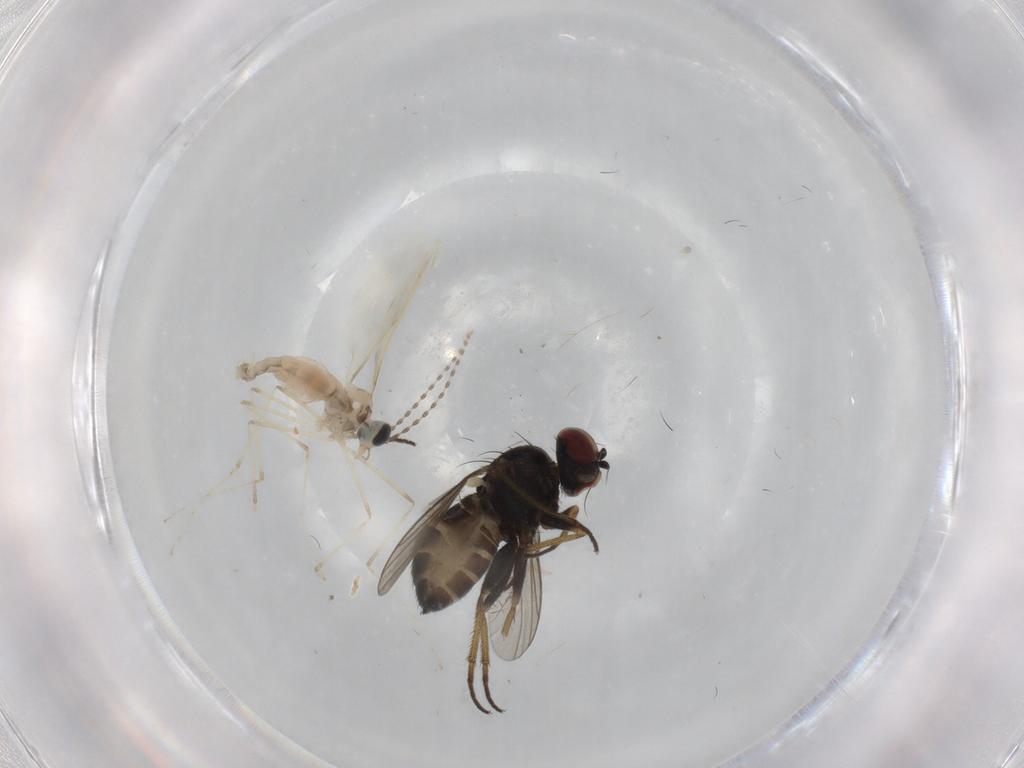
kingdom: Animalia
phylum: Arthropoda
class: Insecta
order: Diptera
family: Dolichopodidae
